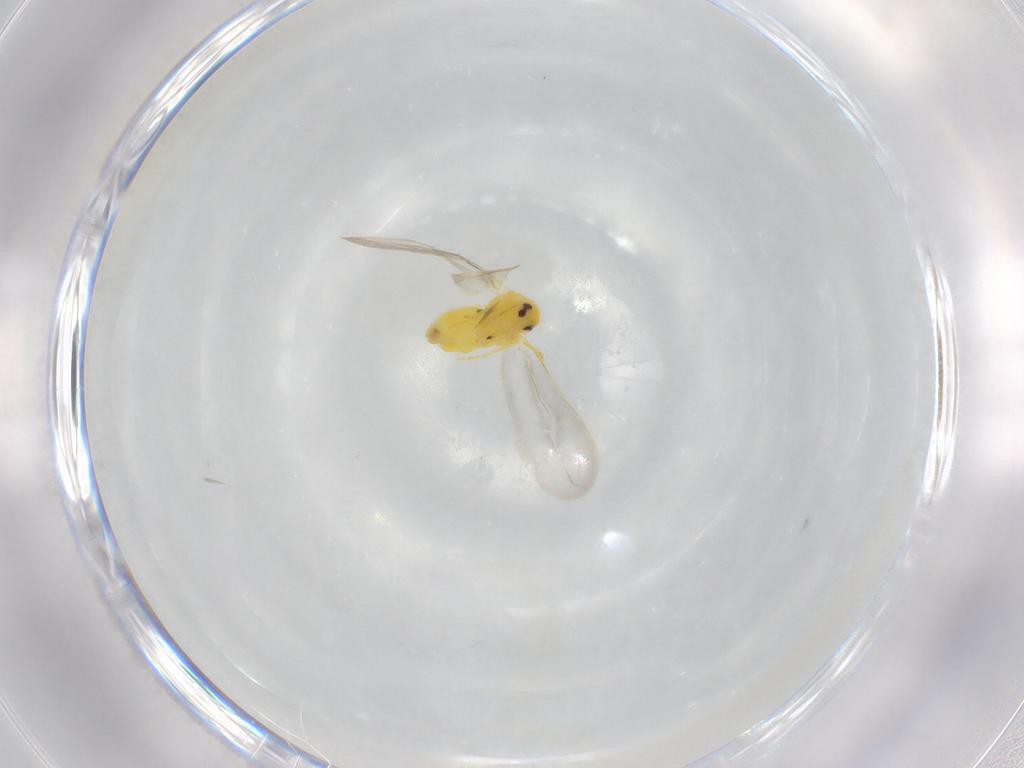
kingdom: Animalia
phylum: Arthropoda
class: Insecta
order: Hemiptera
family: Aleyrodidae
